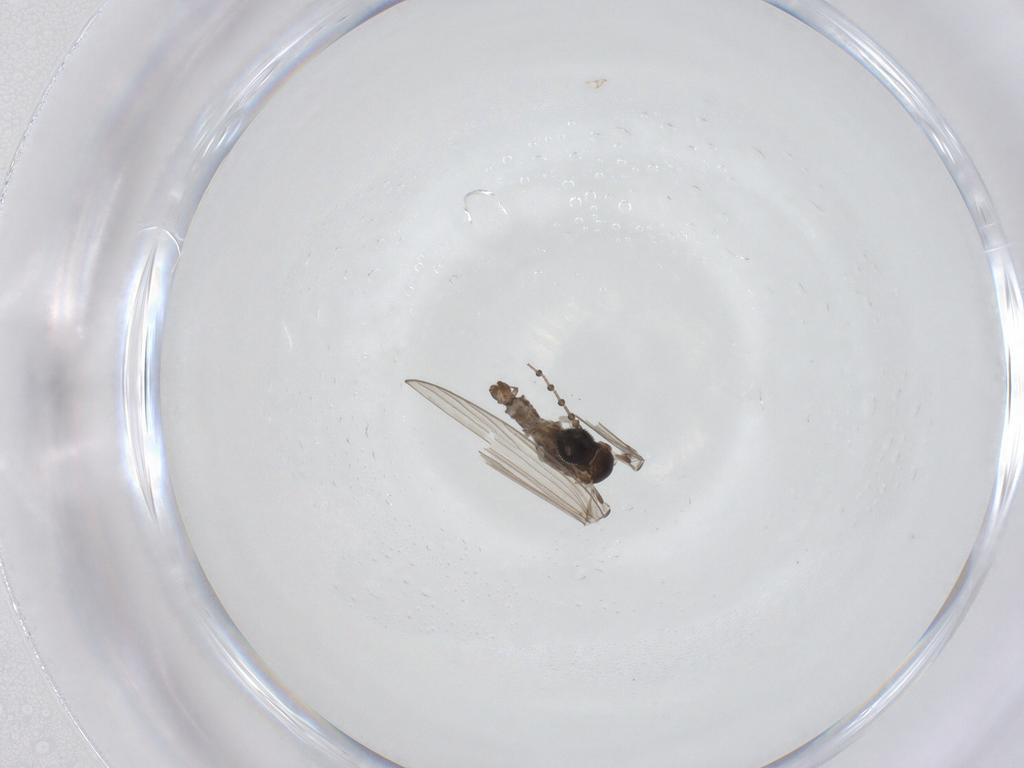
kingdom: Animalia
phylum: Arthropoda
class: Insecta
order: Diptera
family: Psychodidae
